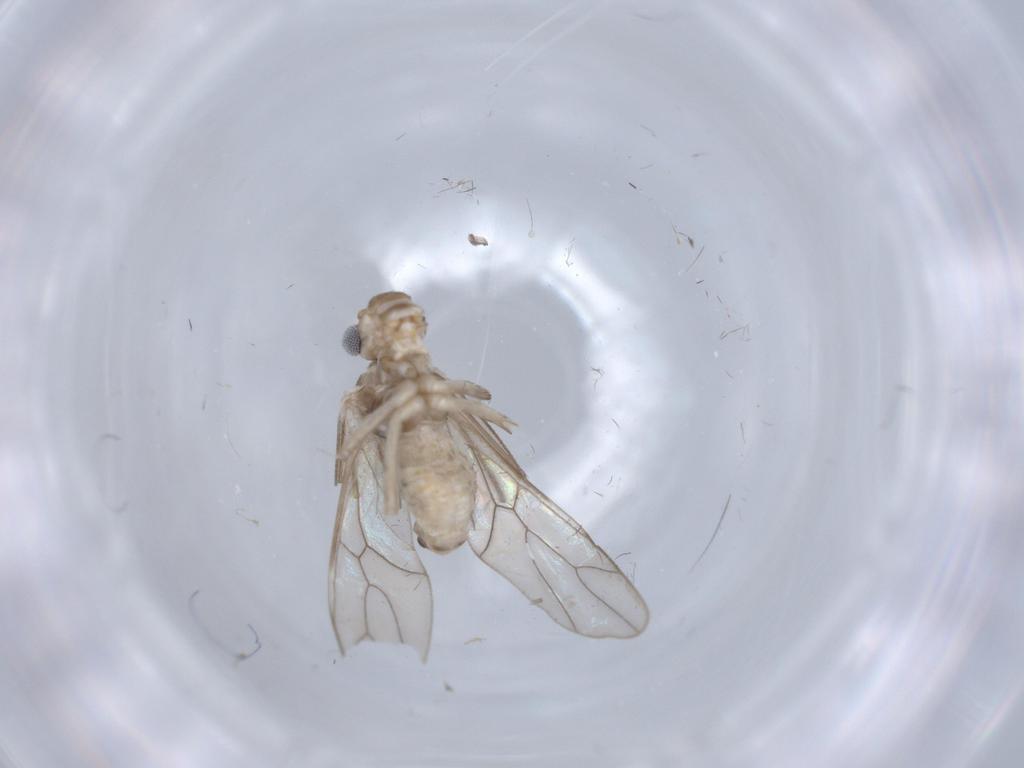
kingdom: Animalia
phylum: Arthropoda
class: Insecta
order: Psocodea
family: Amphipsocidae
